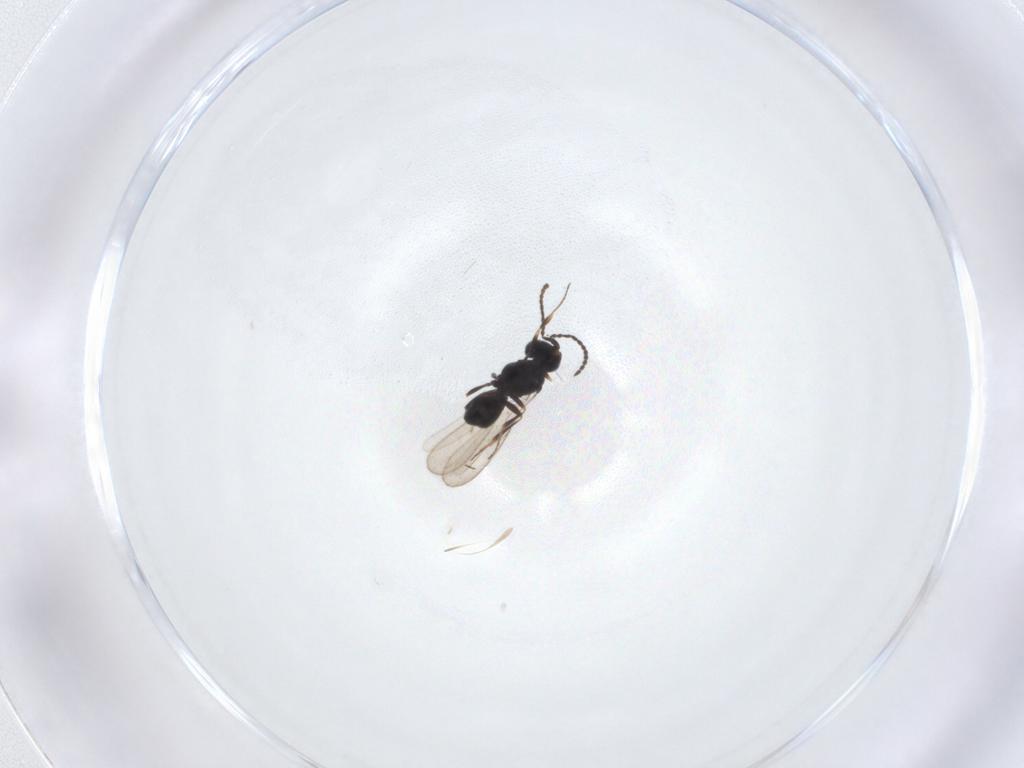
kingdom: Animalia
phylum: Arthropoda
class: Insecta
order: Hymenoptera
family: Scelionidae
